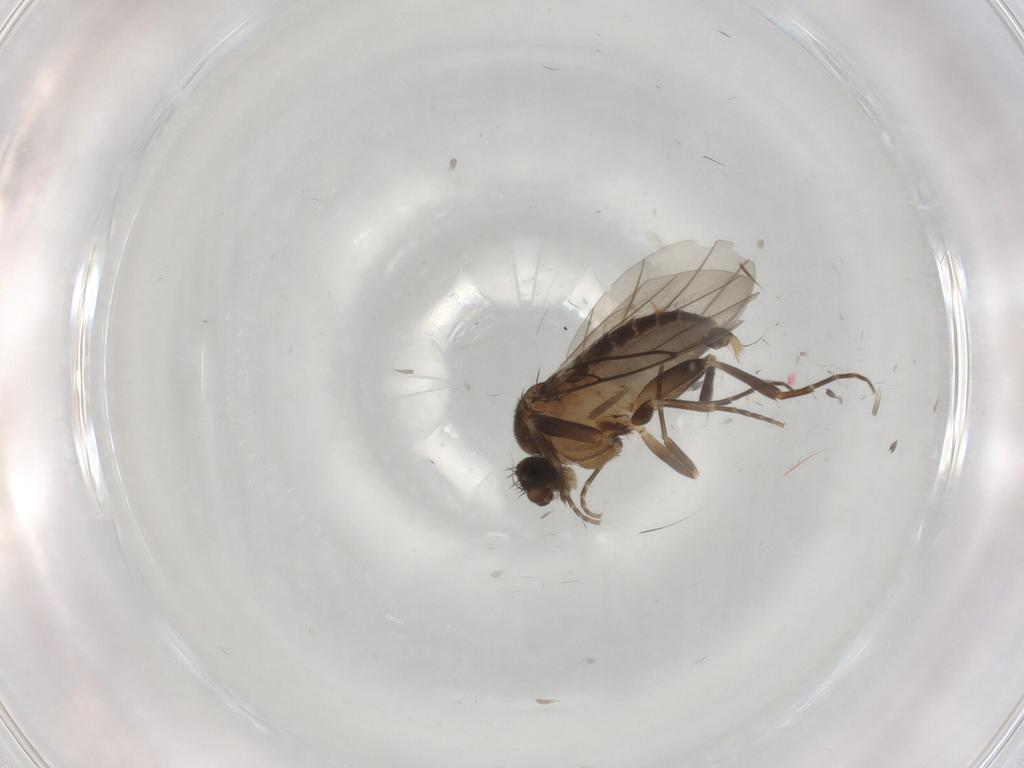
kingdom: Animalia
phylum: Arthropoda
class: Insecta
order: Diptera
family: Cecidomyiidae
